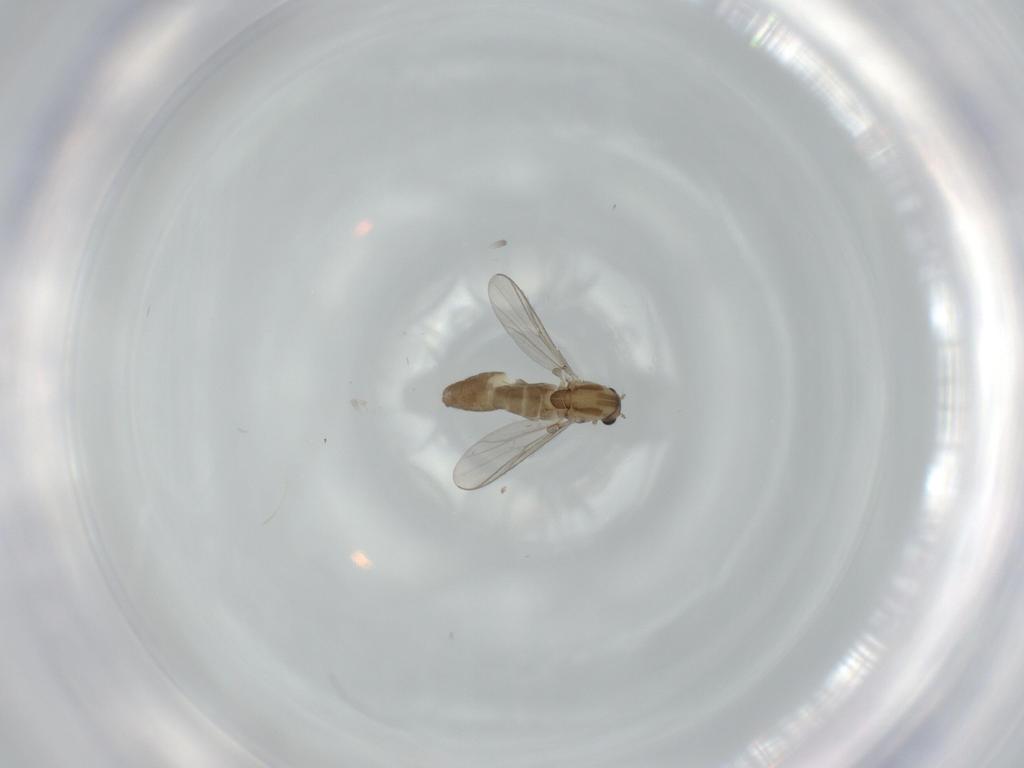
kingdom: Animalia
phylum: Arthropoda
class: Insecta
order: Diptera
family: Chironomidae
